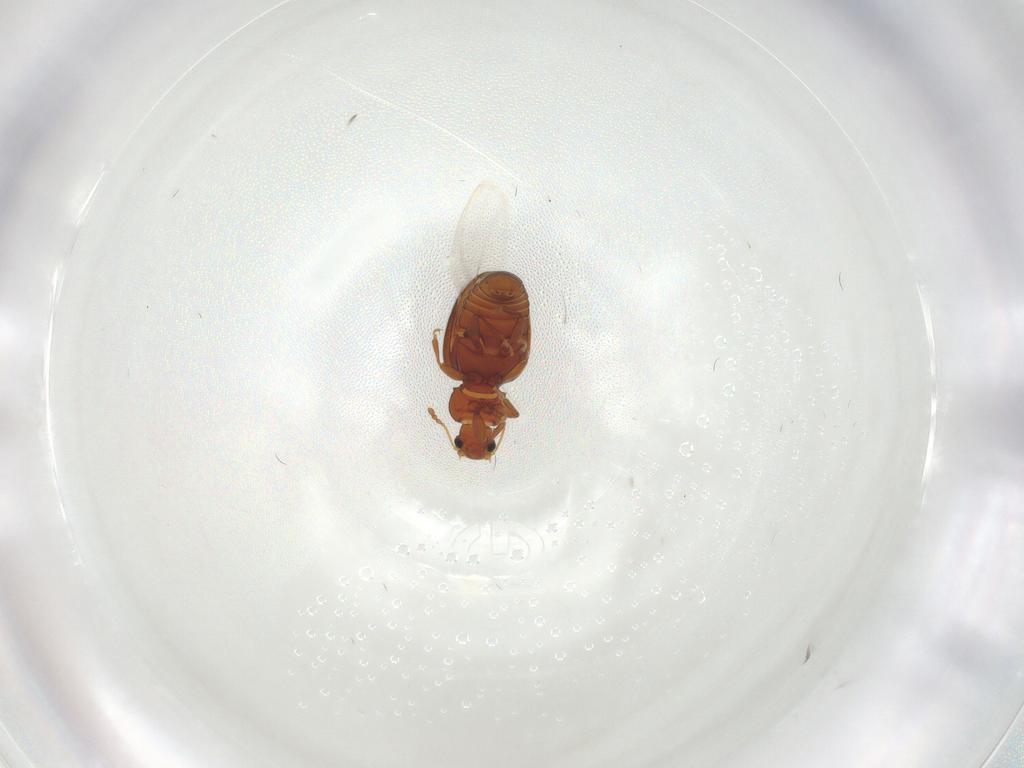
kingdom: Animalia
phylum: Arthropoda
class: Insecta
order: Coleoptera
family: Latridiidae
